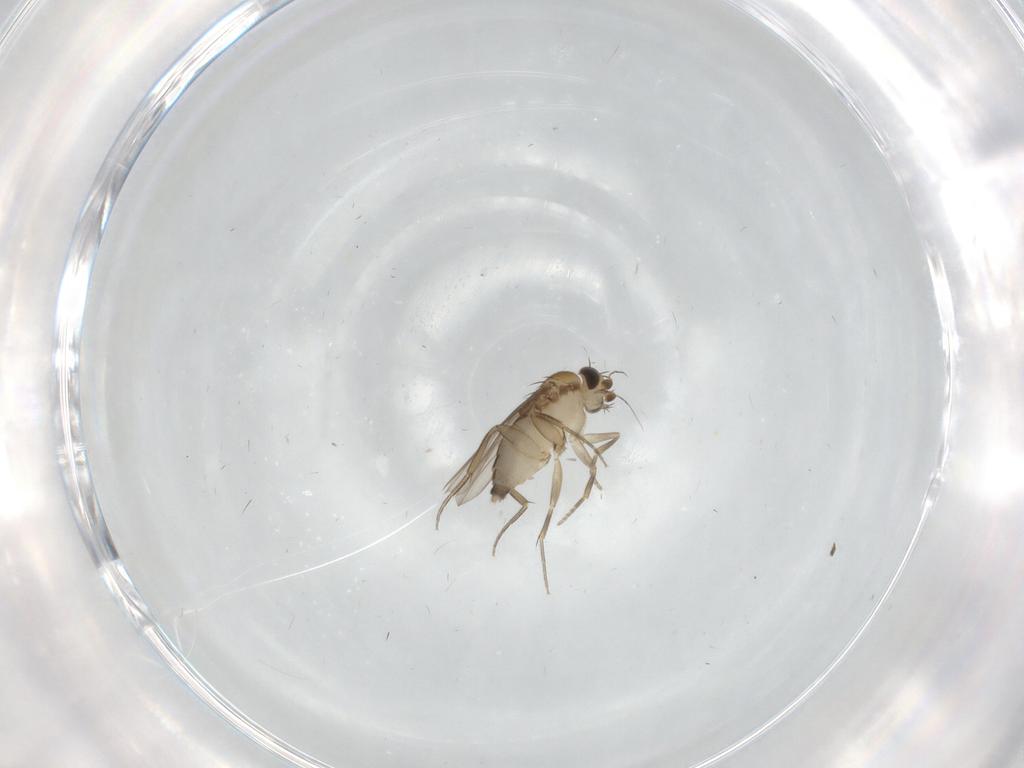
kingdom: Animalia
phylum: Arthropoda
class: Insecta
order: Diptera
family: Phoridae
